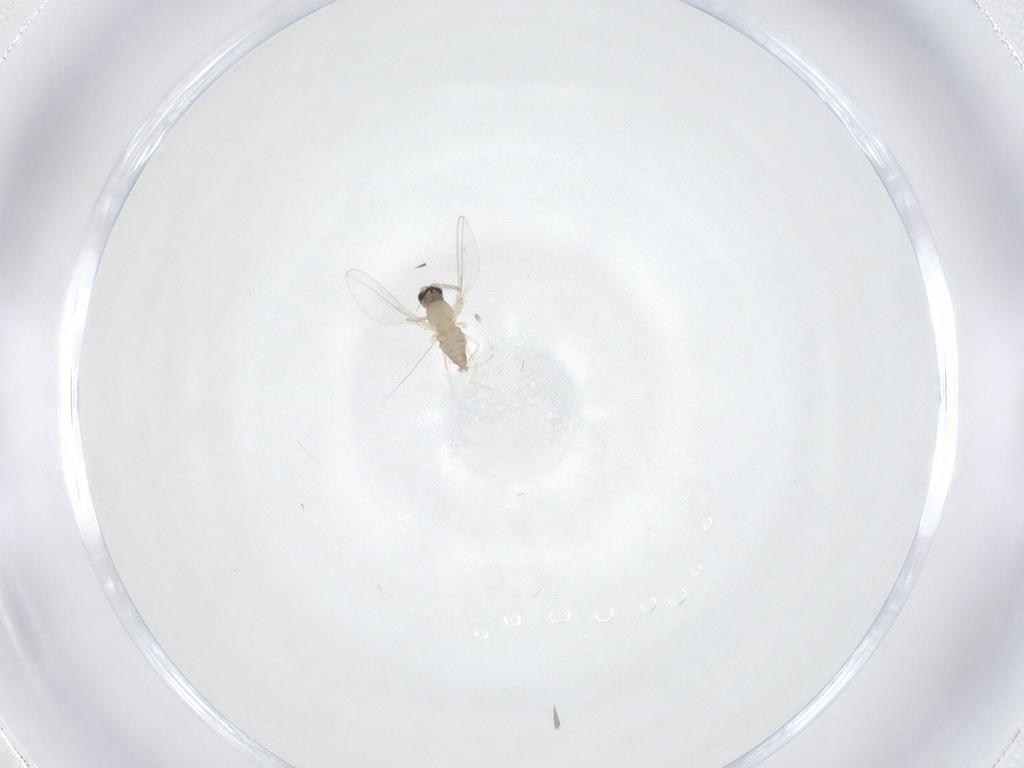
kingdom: Animalia
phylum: Arthropoda
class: Insecta
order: Diptera
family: Cecidomyiidae
